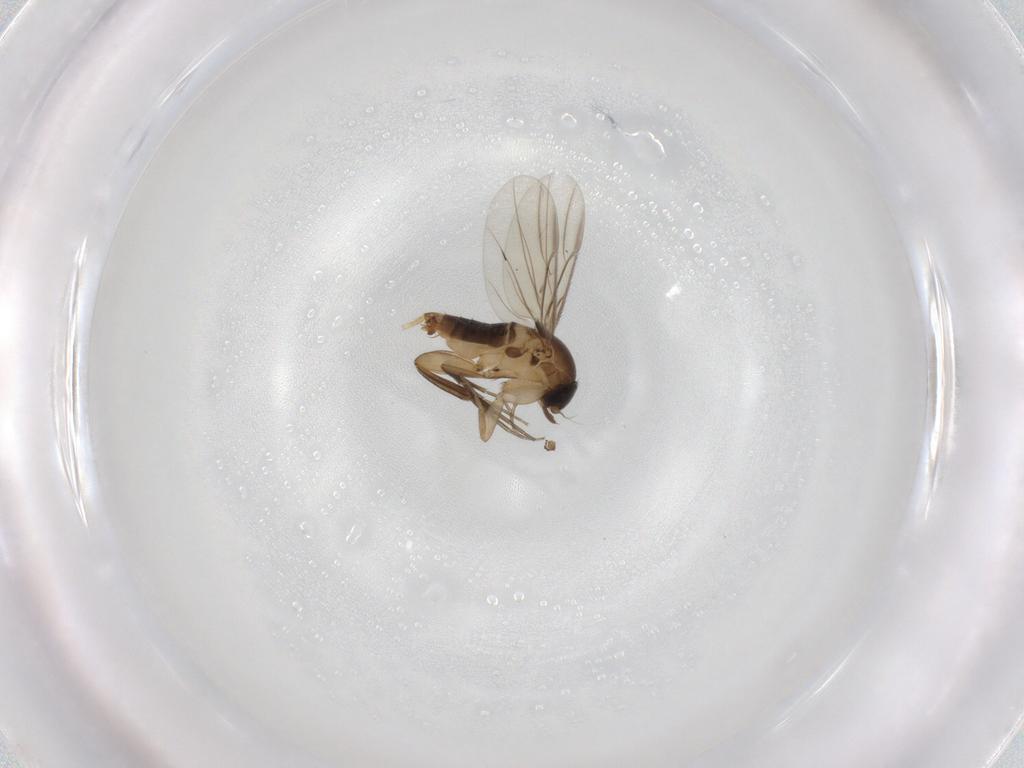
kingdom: Animalia
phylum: Arthropoda
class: Insecta
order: Diptera
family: Phoridae
